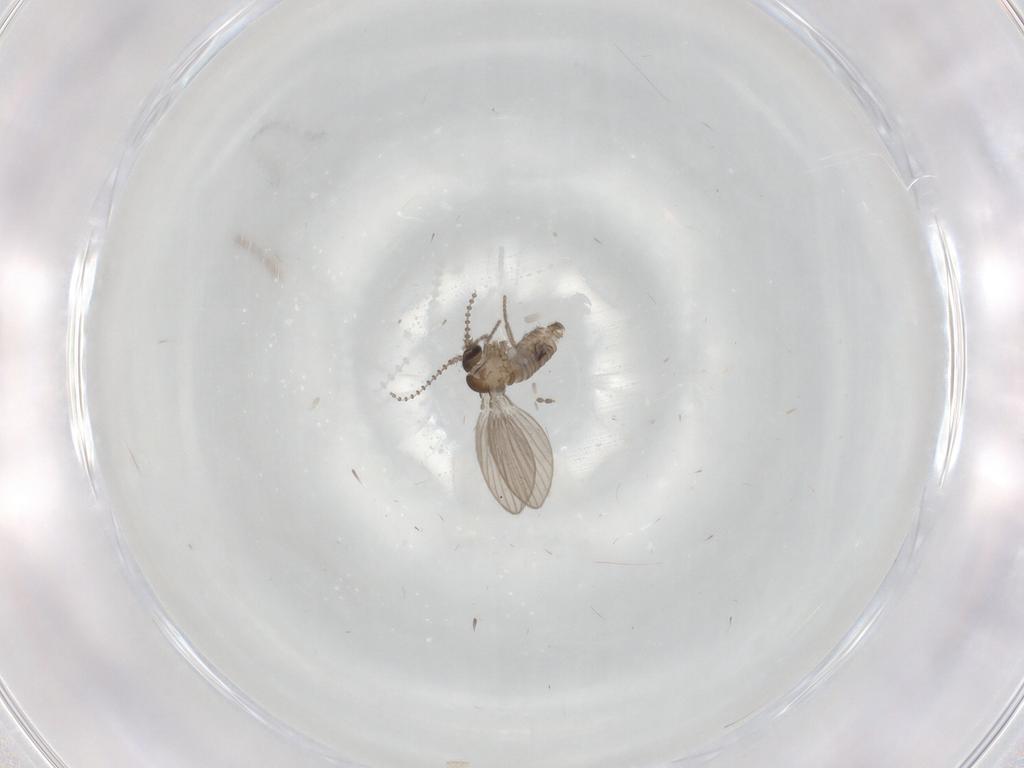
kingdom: Animalia
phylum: Arthropoda
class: Insecta
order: Diptera
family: Psychodidae
